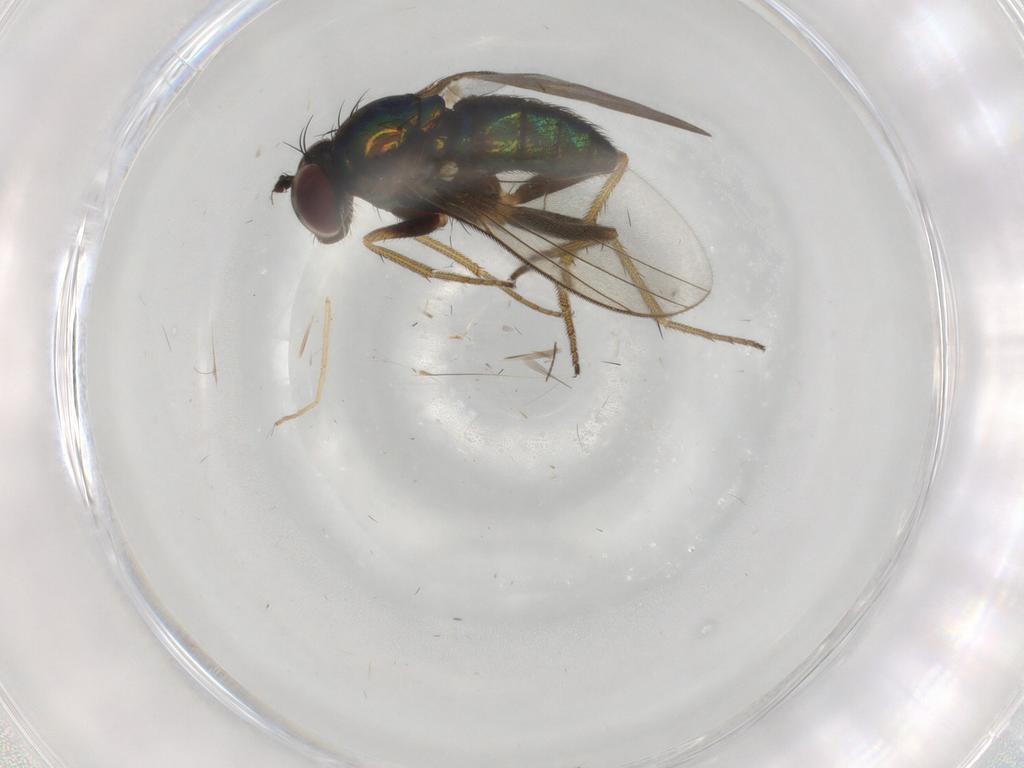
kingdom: Animalia
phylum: Arthropoda
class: Insecta
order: Diptera
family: Dolichopodidae
